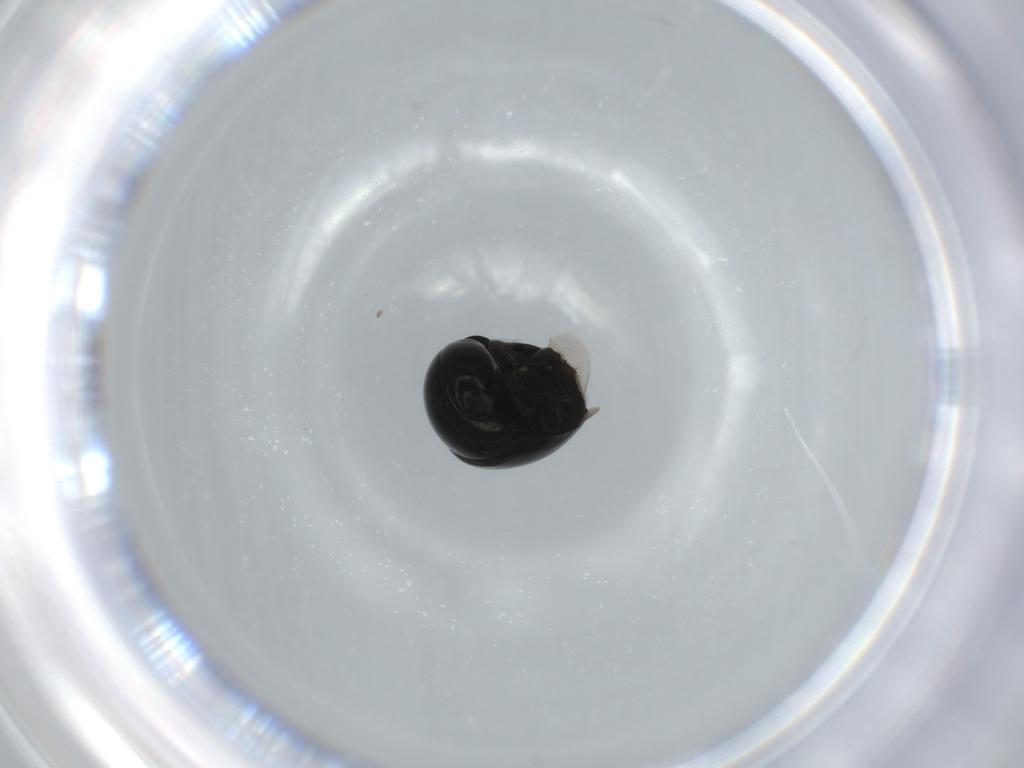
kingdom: Animalia
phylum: Arthropoda
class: Insecta
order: Coleoptera
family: Cybocephalidae
